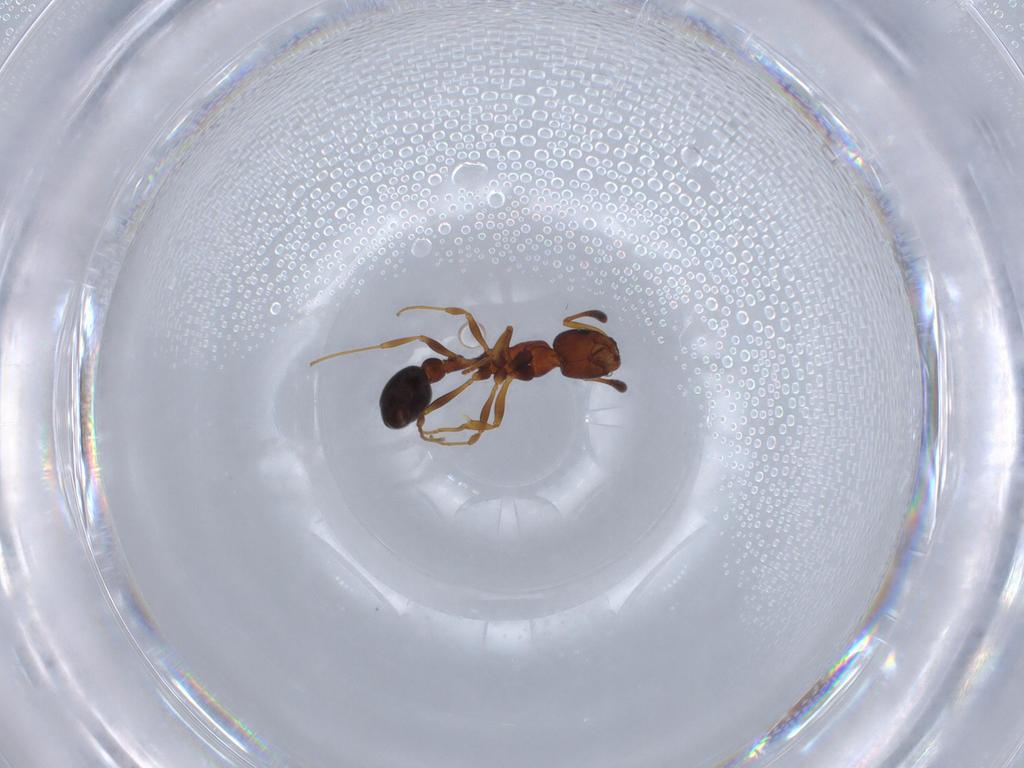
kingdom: Animalia
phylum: Arthropoda
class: Insecta
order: Hymenoptera
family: Formicidae
